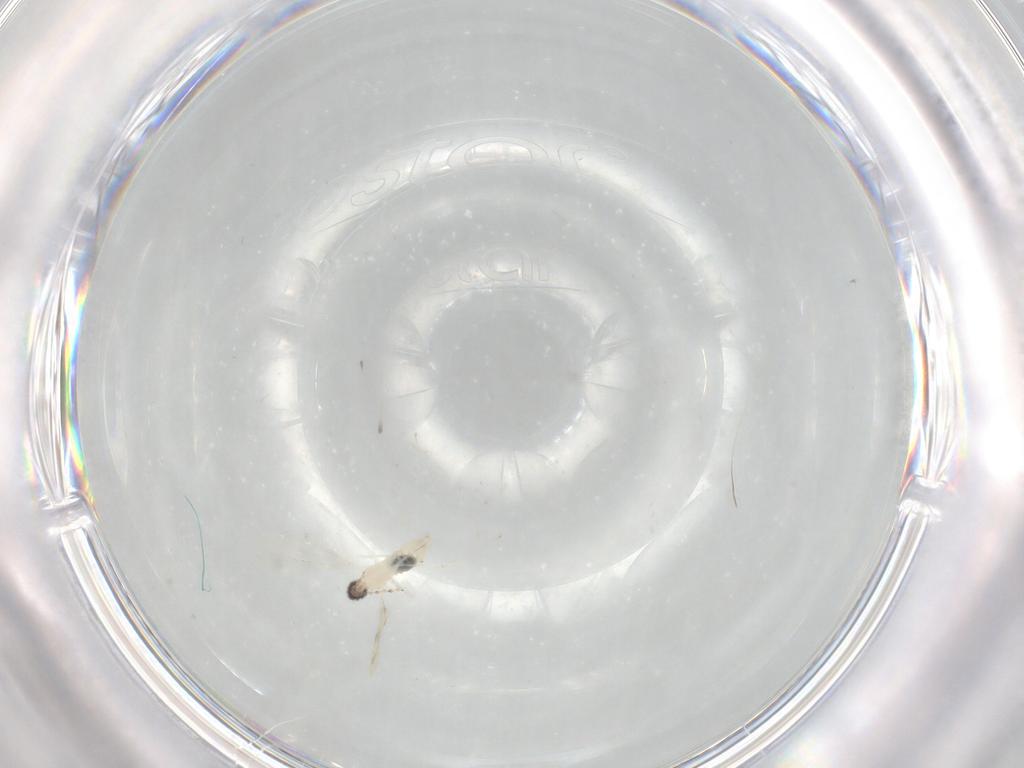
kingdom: Animalia
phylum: Arthropoda
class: Insecta
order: Diptera
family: Cecidomyiidae
